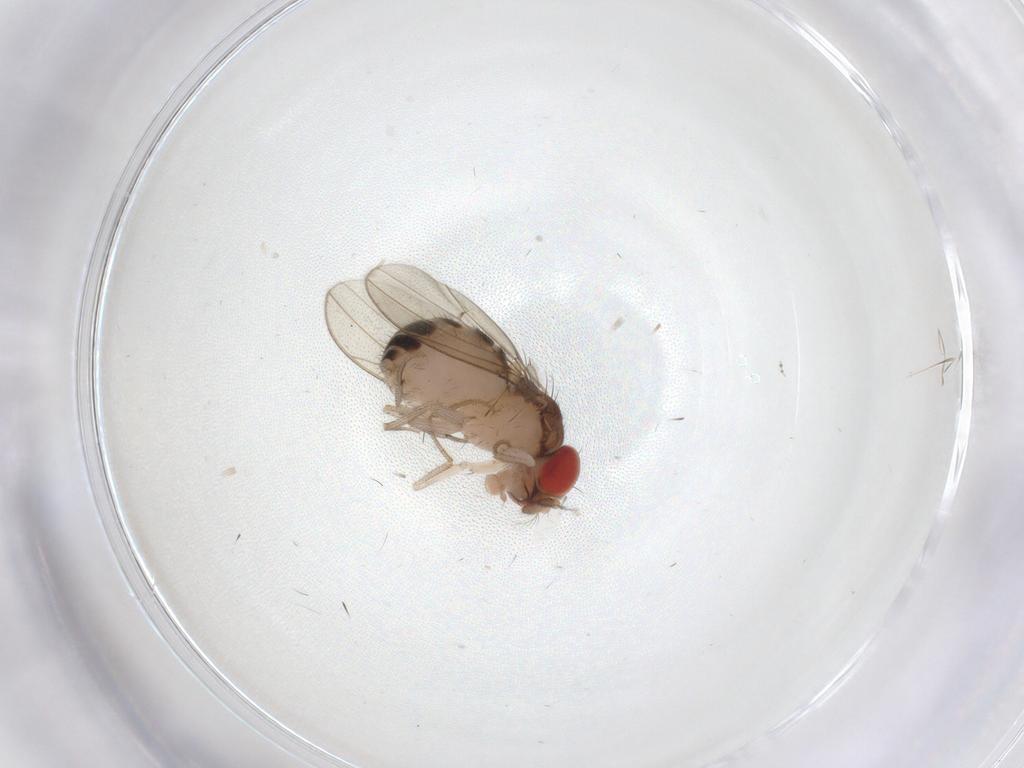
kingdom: Animalia
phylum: Arthropoda
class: Insecta
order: Diptera
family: Drosophilidae
